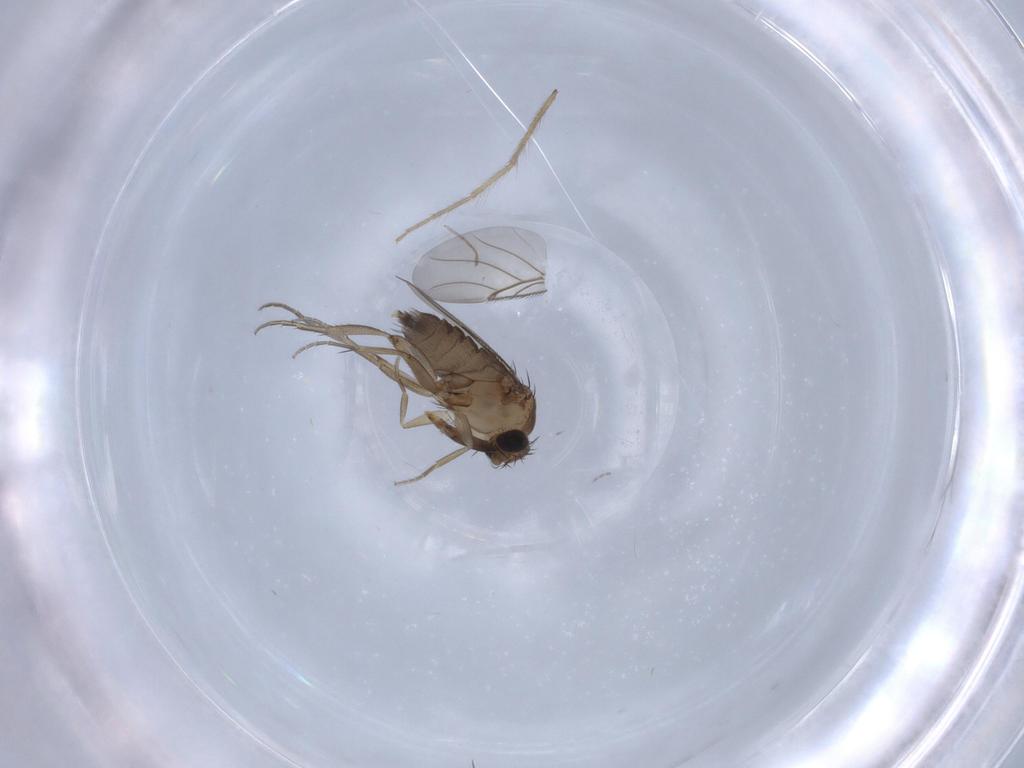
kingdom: Animalia
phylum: Arthropoda
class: Insecta
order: Diptera
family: Phoridae
